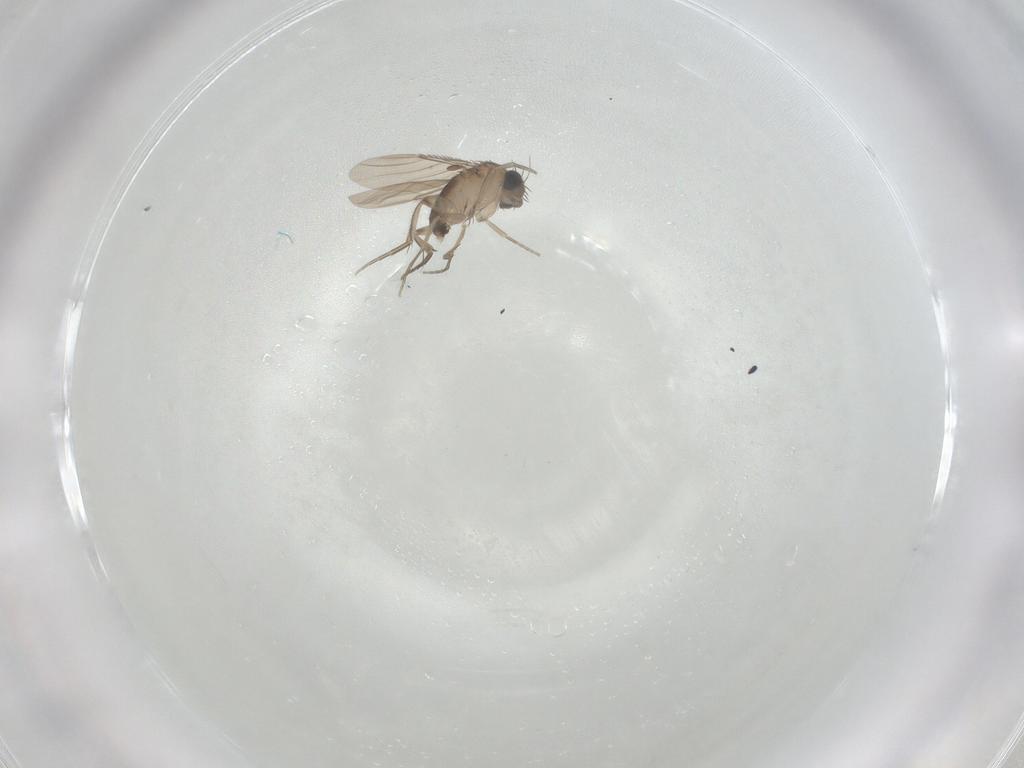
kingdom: Animalia
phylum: Arthropoda
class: Insecta
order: Diptera
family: Phoridae
